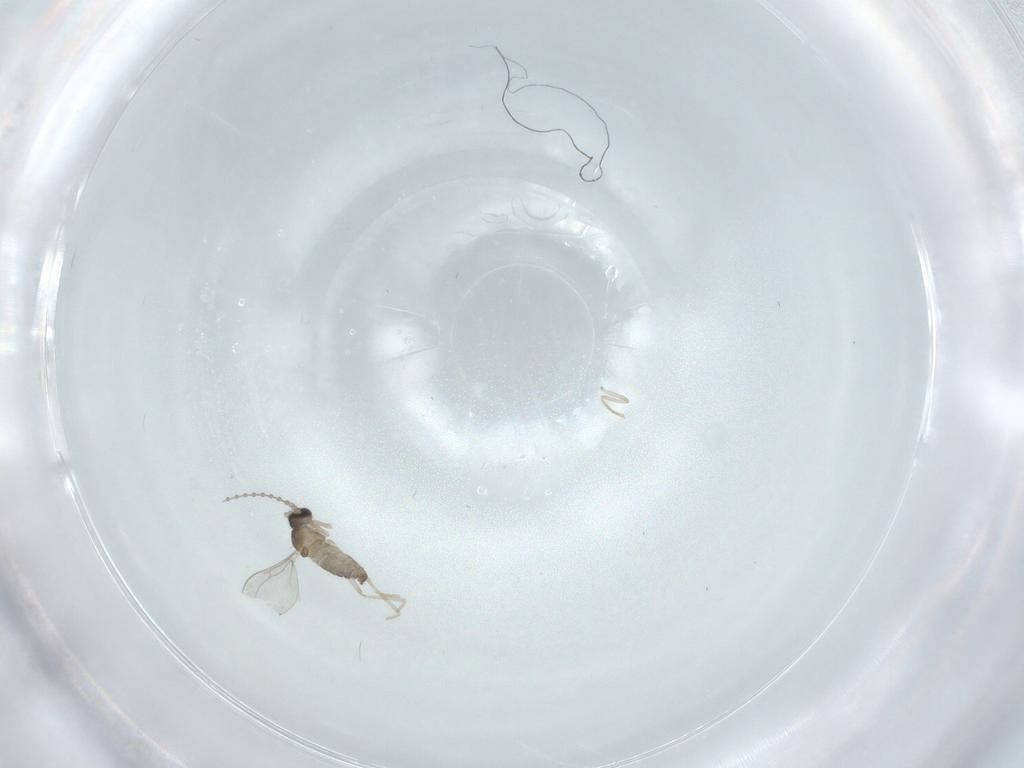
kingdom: Animalia
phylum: Arthropoda
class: Insecta
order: Diptera
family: Cecidomyiidae
